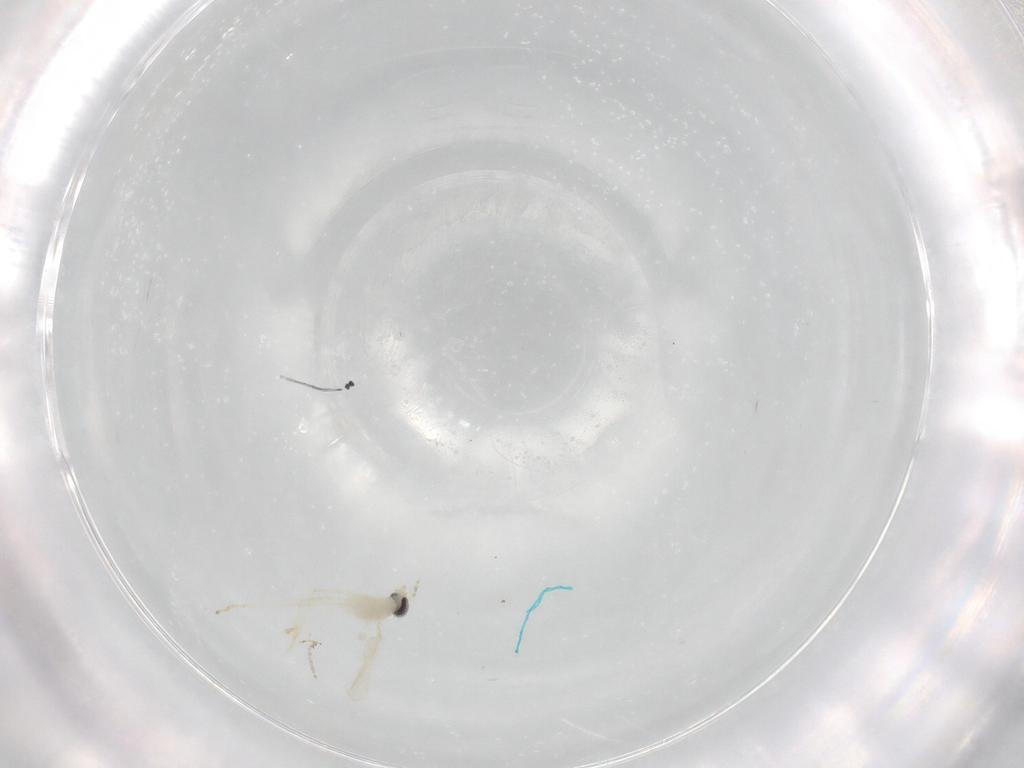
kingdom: Animalia
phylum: Arthropoda
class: Insecta
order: Diptera
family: Cecidomyiidae
